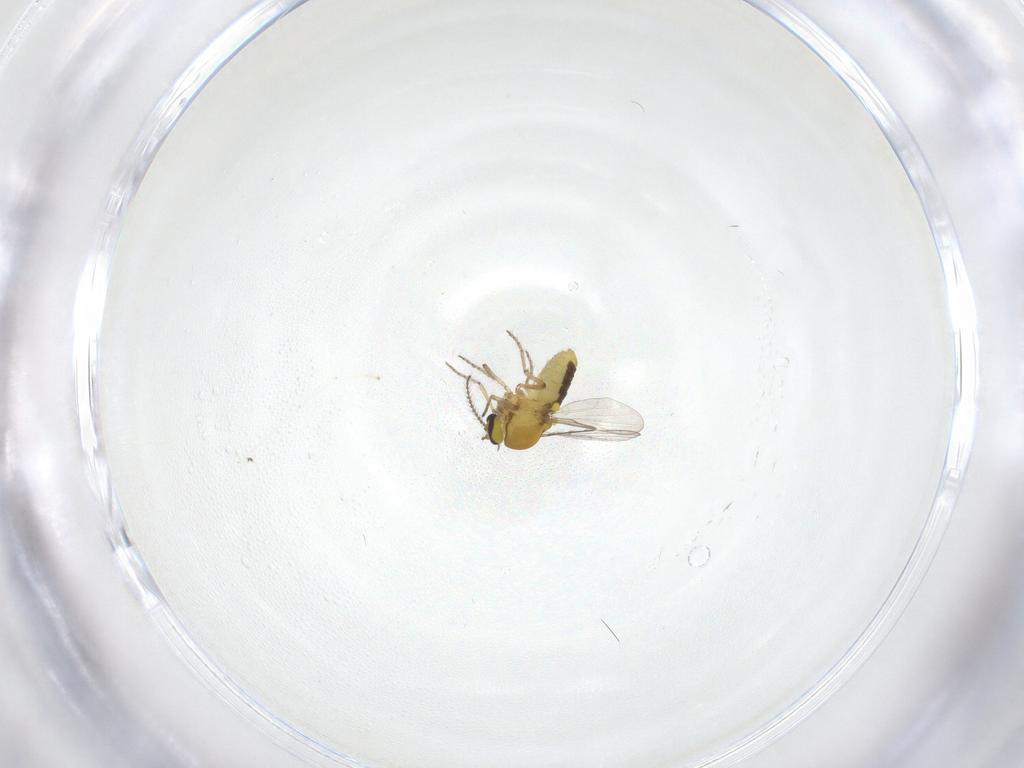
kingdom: Animalia
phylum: Arthropoda
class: Insecta
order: Diptera
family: Ceratopogonidae
